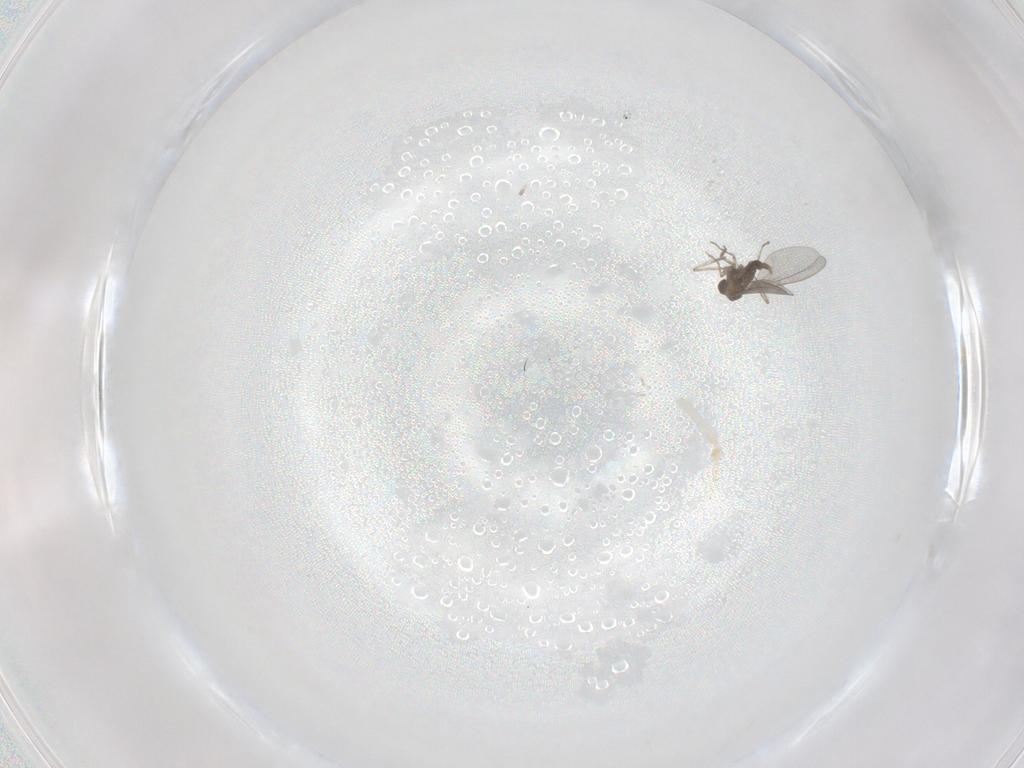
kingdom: Animalia
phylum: Arthropoda
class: Insecta
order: Diptera
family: Cecidomyiidae
